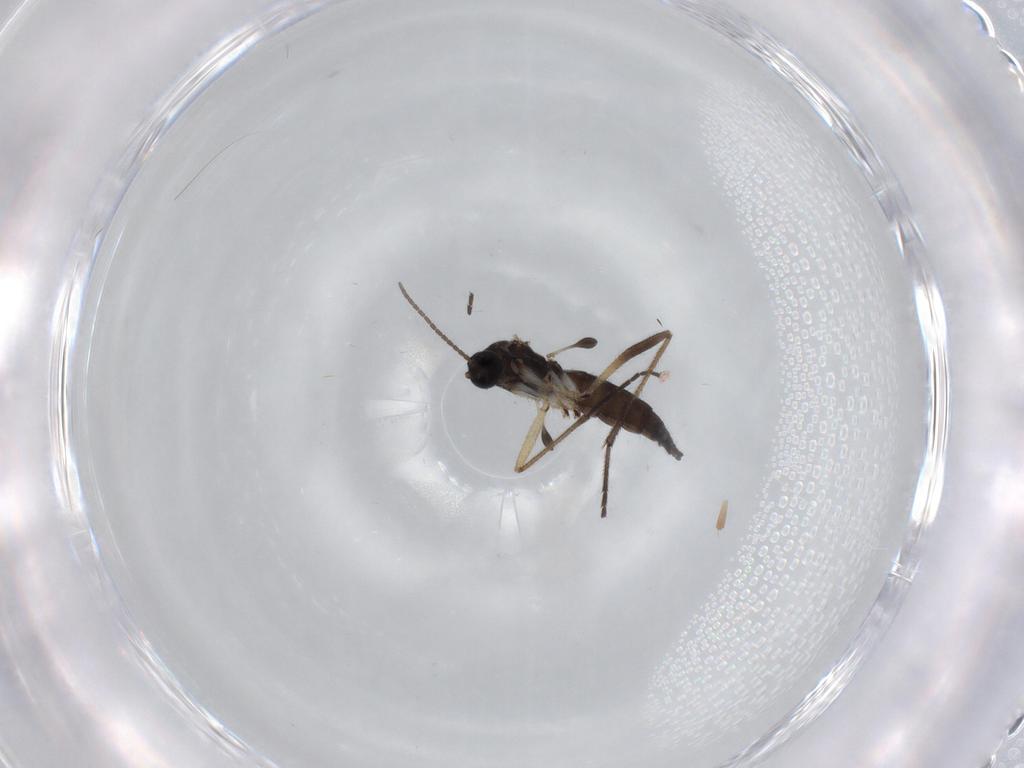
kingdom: Animalia
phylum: Arthropoda
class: Insecta
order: Diptera
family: Sciaridae
